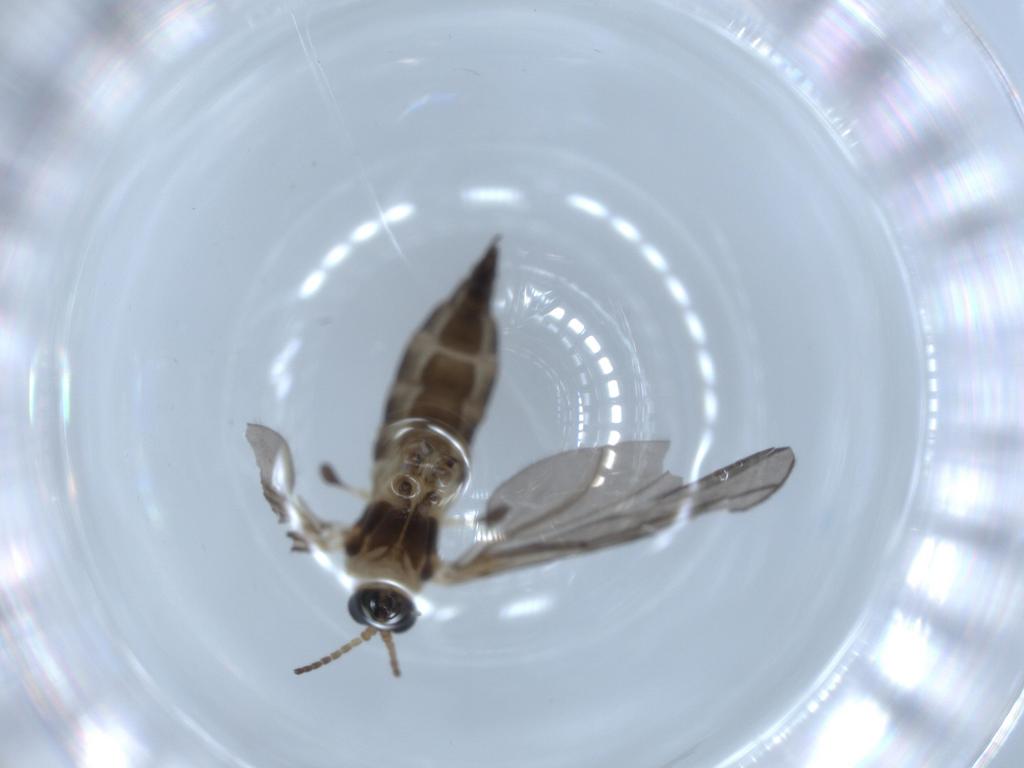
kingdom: Animalia
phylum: Arthropoda
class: Insecta
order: Diptera
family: Sciaridae
